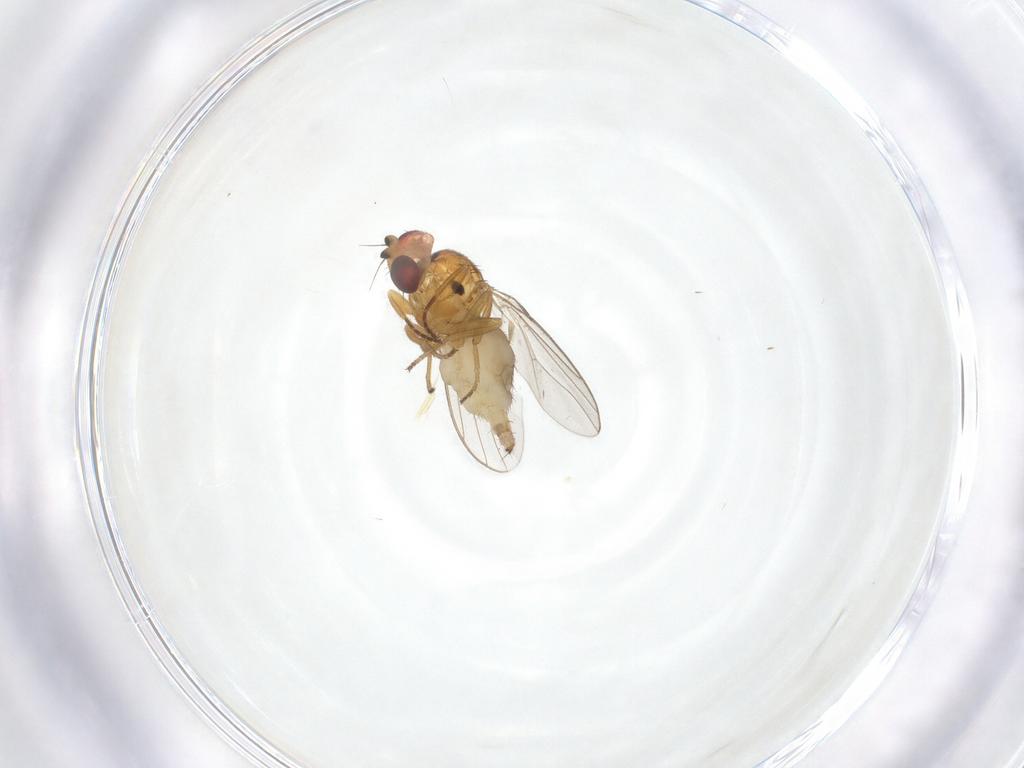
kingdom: Animalia
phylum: Arthropoda
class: Insecta
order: Diptera
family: Chloropidae
